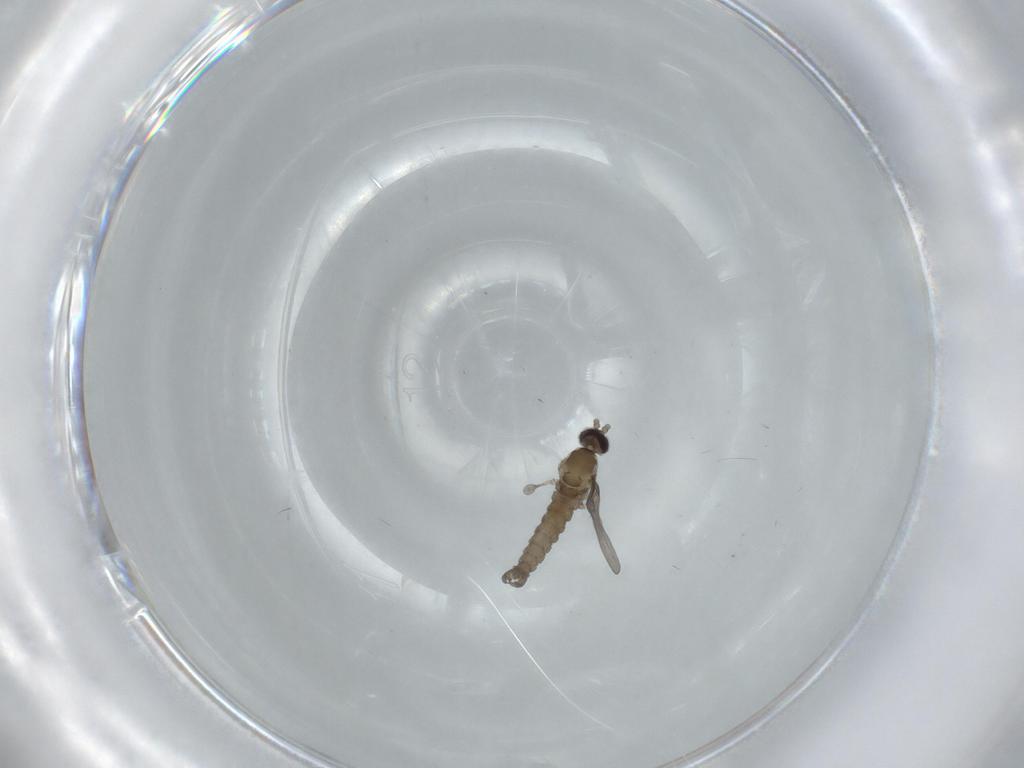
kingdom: Animalia
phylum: Arthropoda
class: Insecta
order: Diptera
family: Cecidomyiidae
